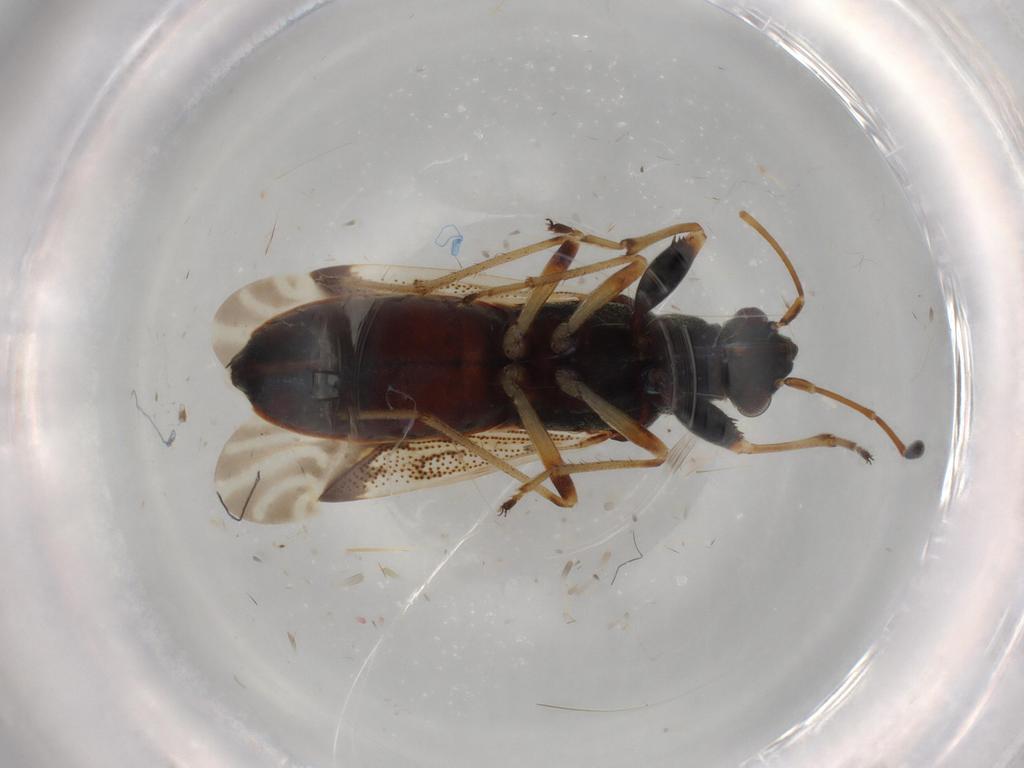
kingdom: Animalia
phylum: Arthropoda
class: Insecta
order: Hemiptera
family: Rhyparochromidae
